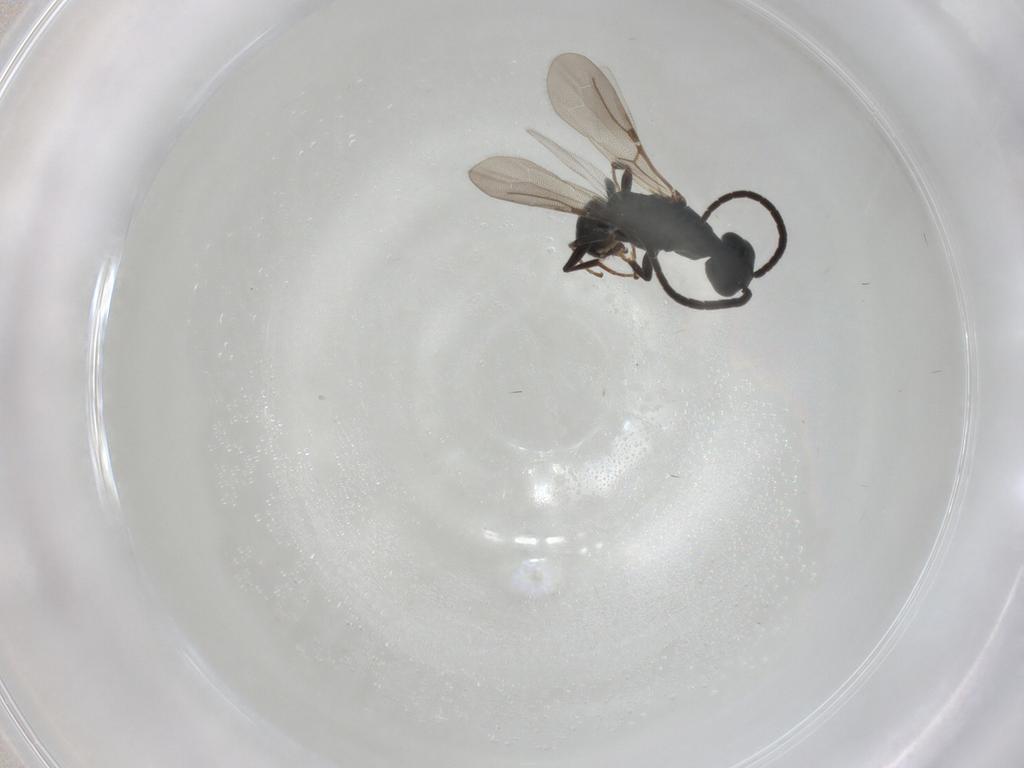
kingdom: Animalia
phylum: Arthropoda
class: Insecta
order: Hymenoptera
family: Bethylidae
